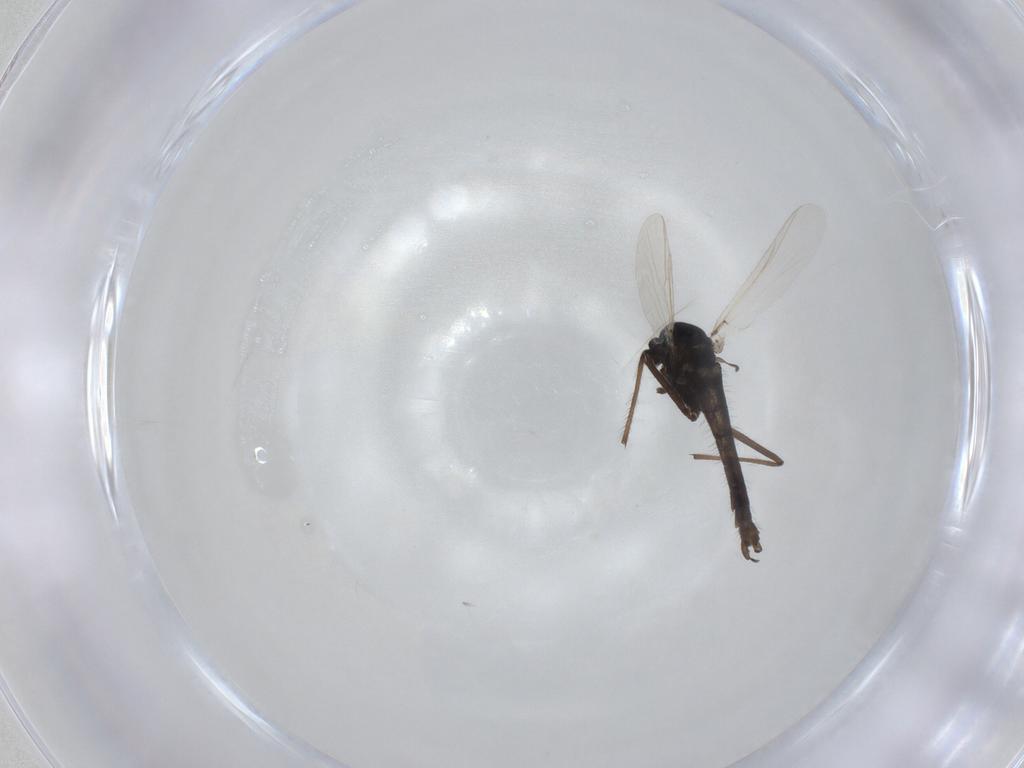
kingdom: Animalia
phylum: Arthropoda
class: Insecta
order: Diptera
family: Chironomidae
